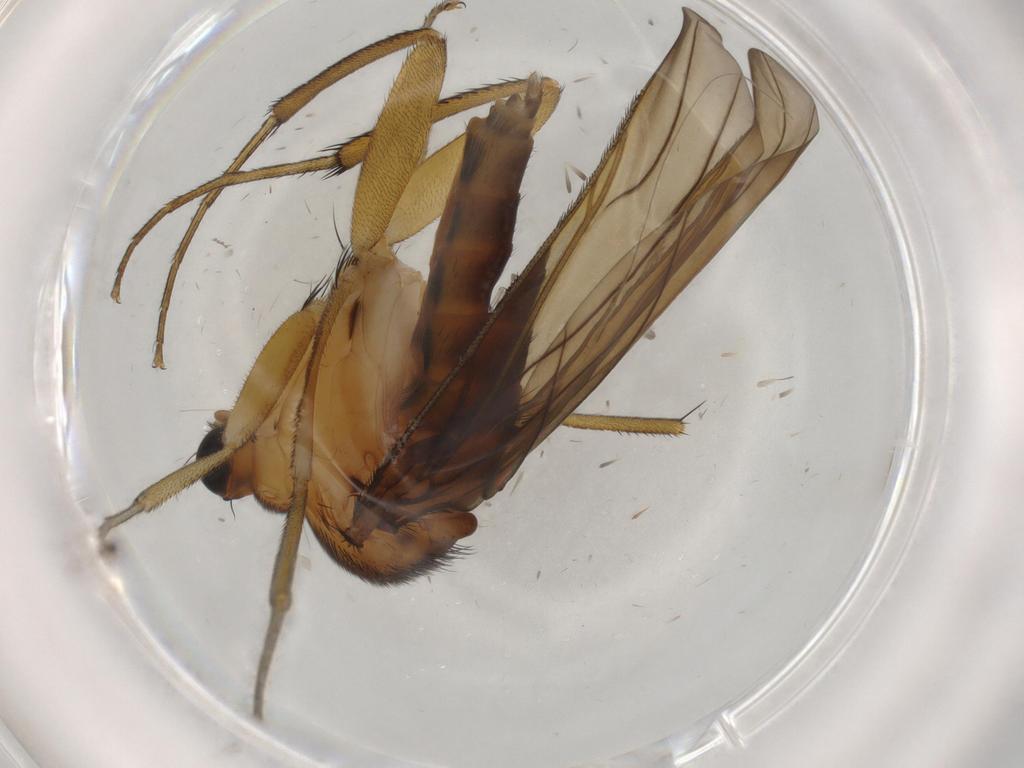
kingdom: Animalia
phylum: Arthropoda
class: Insecta
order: Diptera
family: Phoridae
